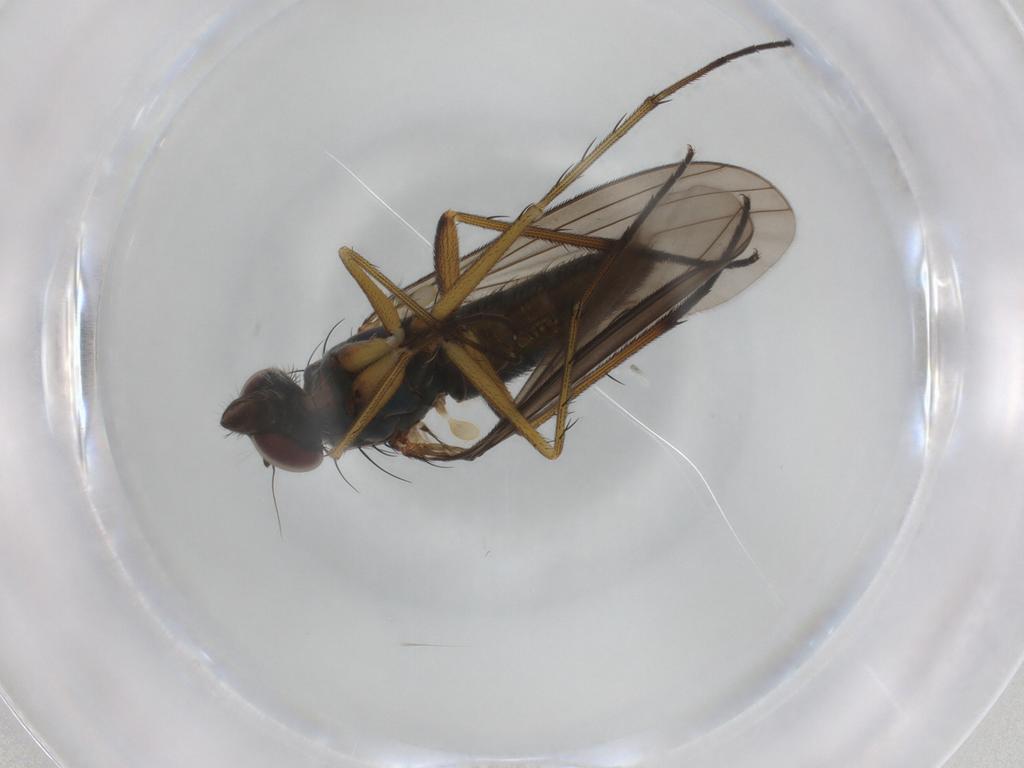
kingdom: Animalia
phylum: Arthropoda
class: Insecta
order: Diptera
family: Dolichopodidae
